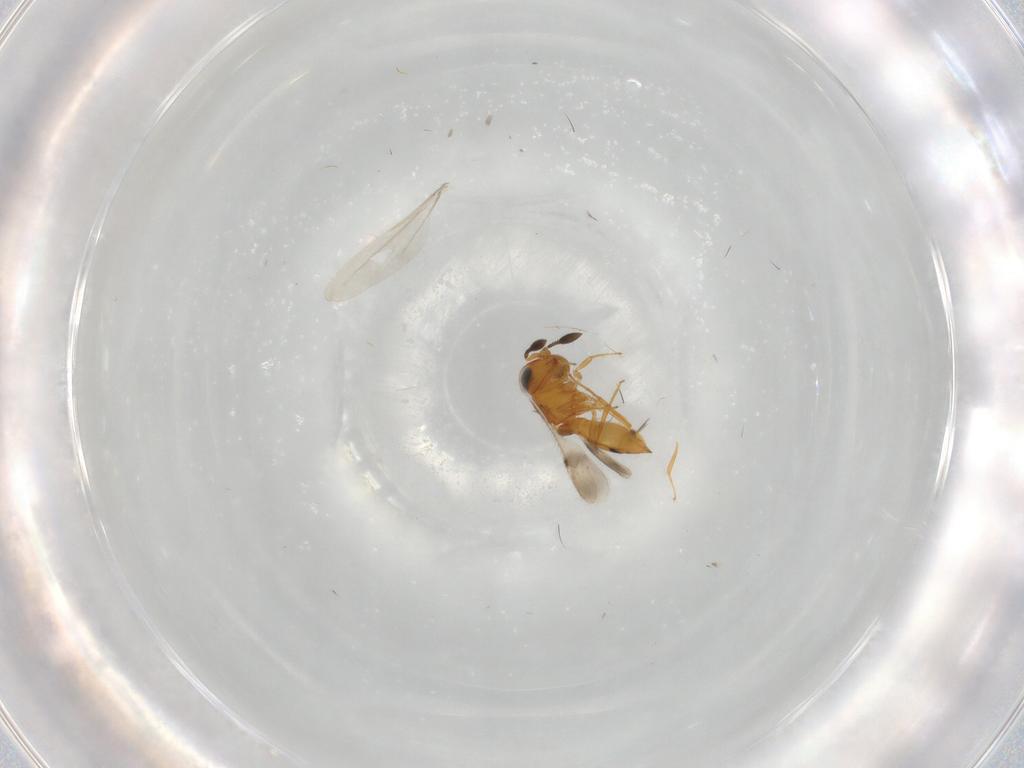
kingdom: Animalia
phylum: Arthropoda
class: Insecta
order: Hymenoptera
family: Scelionidae
